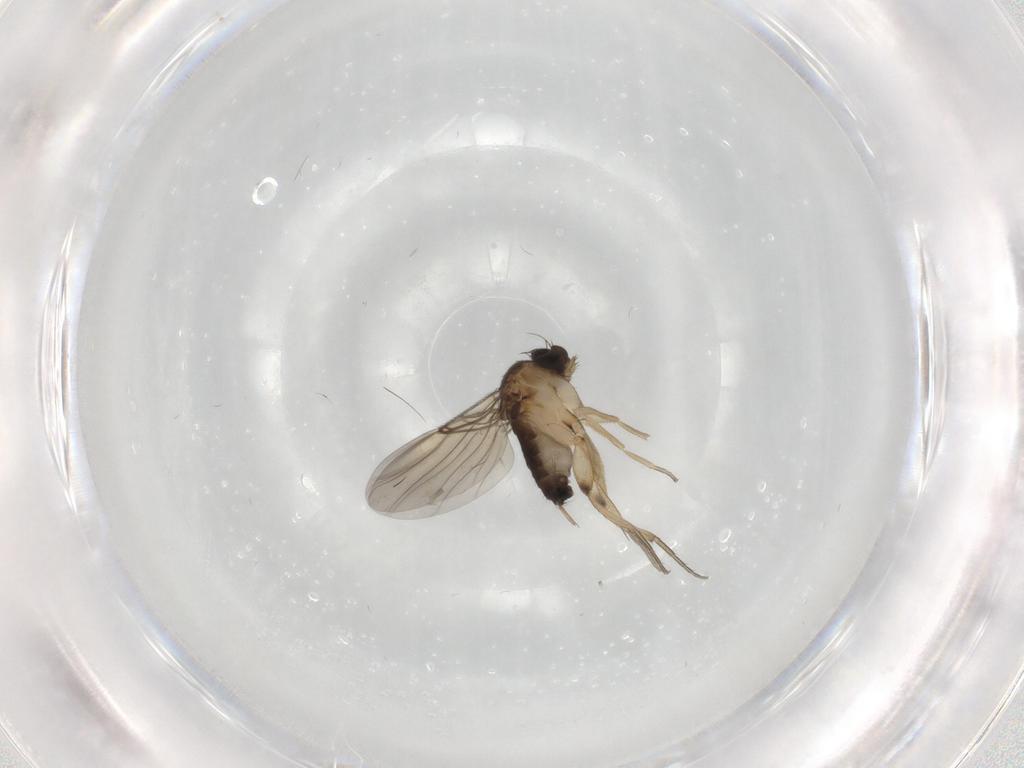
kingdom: Animalia
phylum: Arthropoda
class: Insecta
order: Diptera
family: Phoridae
